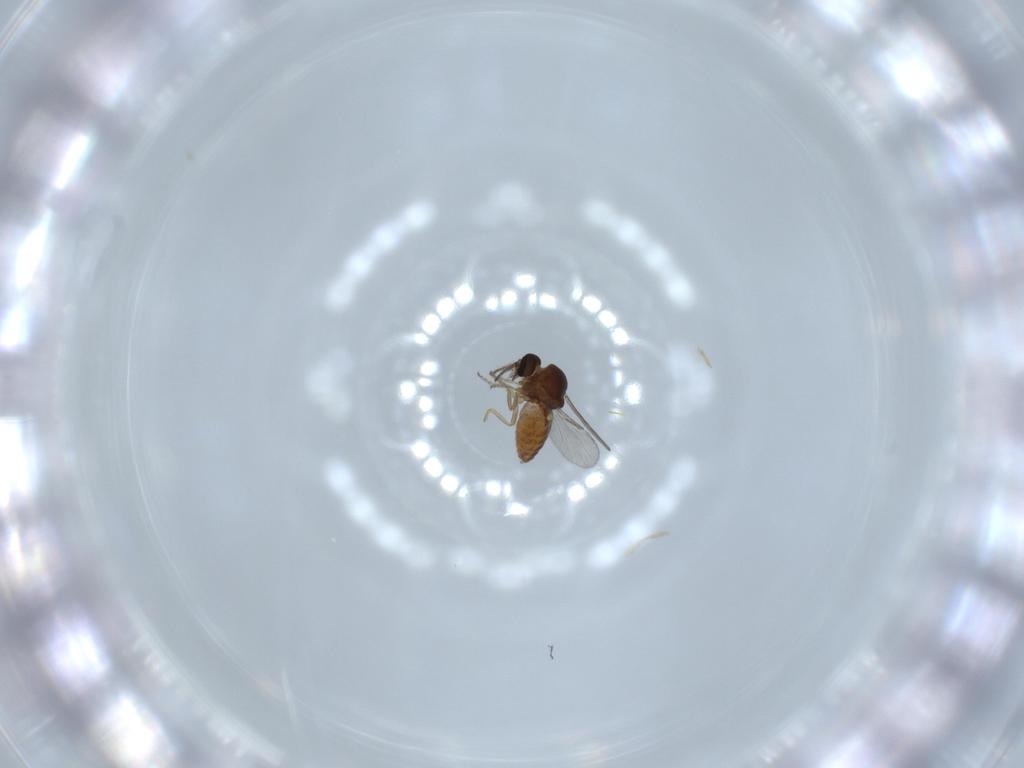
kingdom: Animalia
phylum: Arthropoda
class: Insecta
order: Diptera
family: Ceratopogonidae
